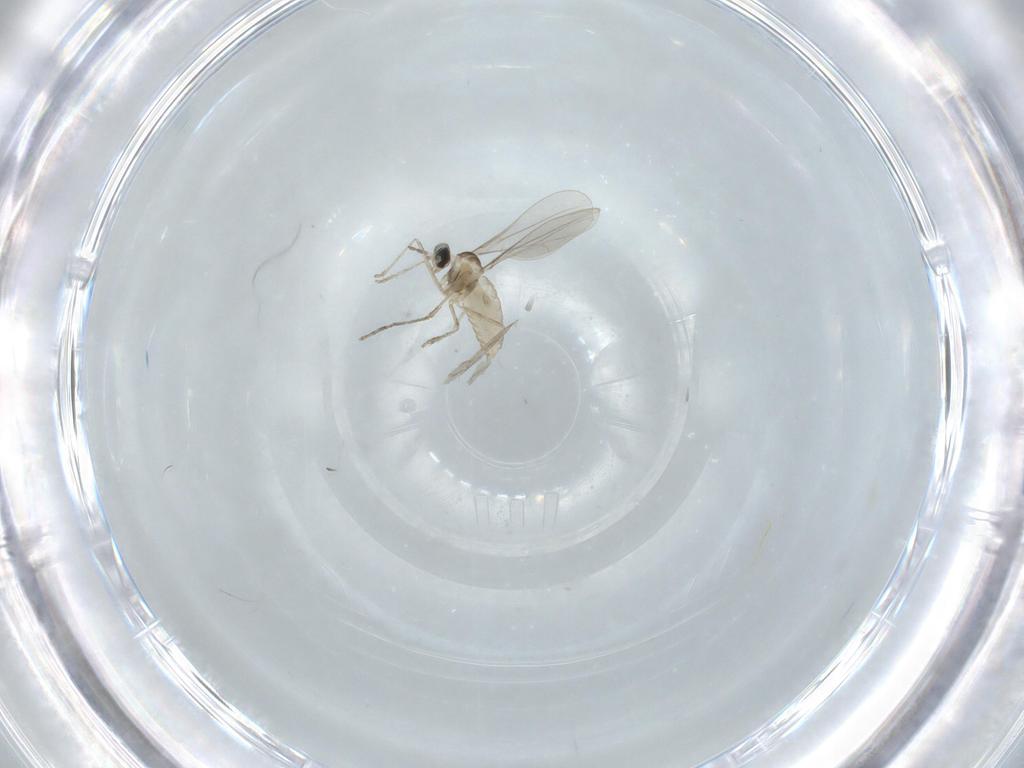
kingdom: Animalia
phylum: Arthropoda
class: Insecta
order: Diptera
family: Cecidomyiidae
